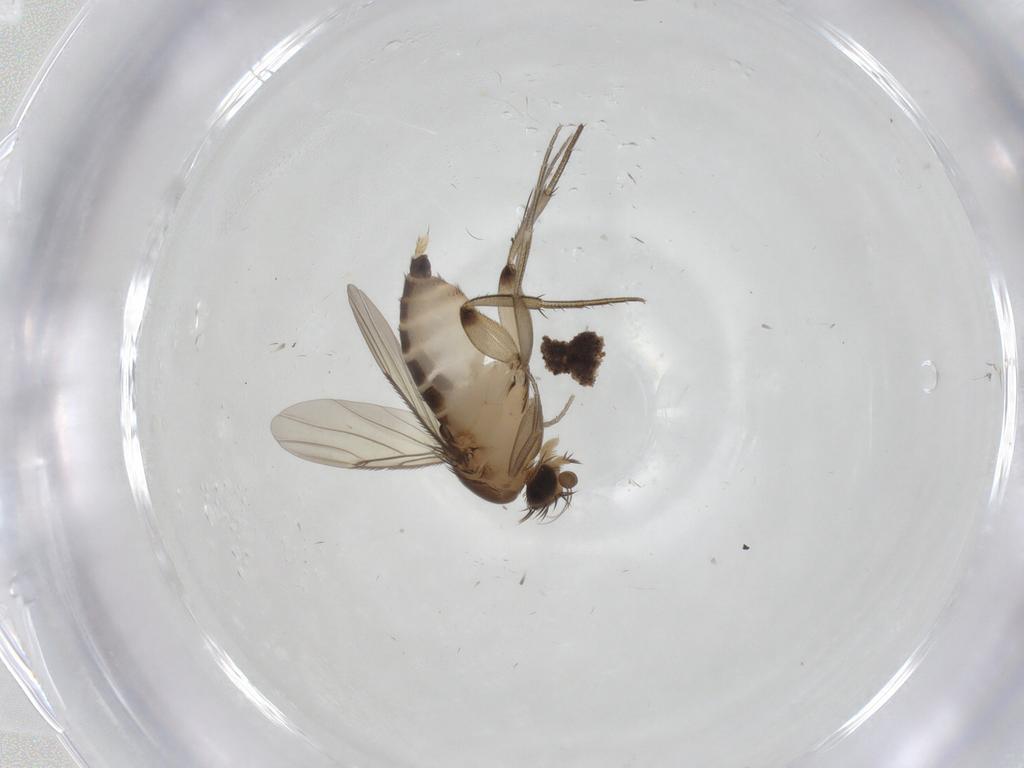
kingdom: Animalia
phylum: Arthropoda
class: Insecta
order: Diptera
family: Phoridae
